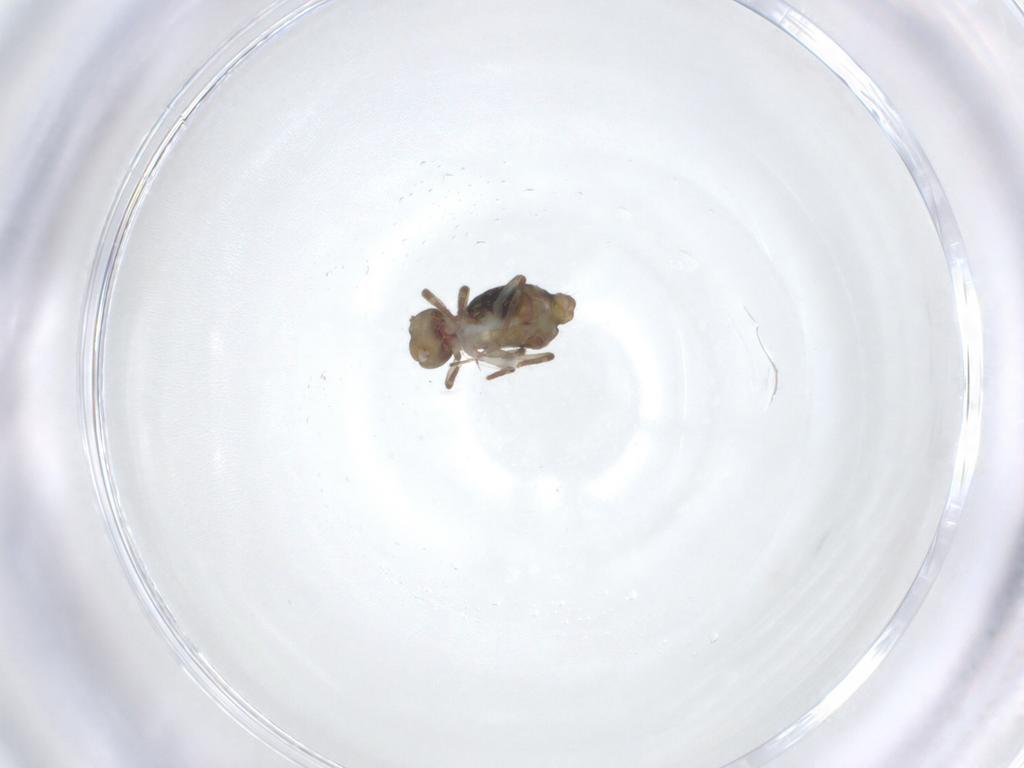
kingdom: Animalia
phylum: Arthropoda
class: Collembola
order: Symphypleona
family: Dicyrtomidae
